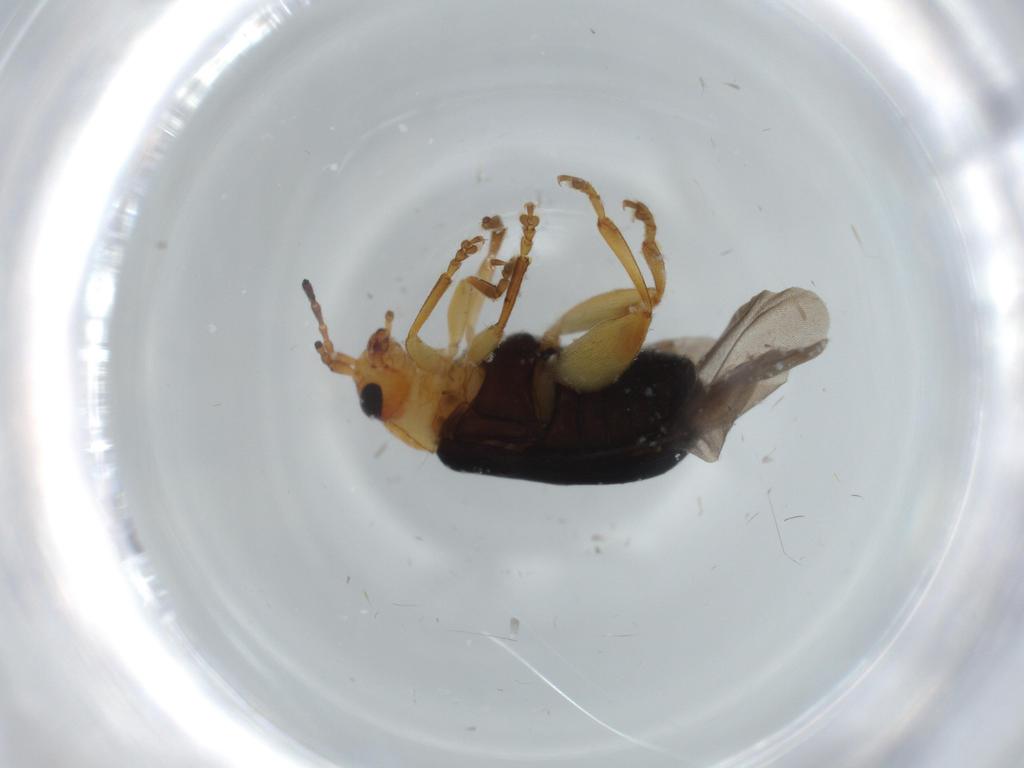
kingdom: Animalia
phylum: Arthropoda
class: Insecta
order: Coleoptera
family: Chrysomelidae
